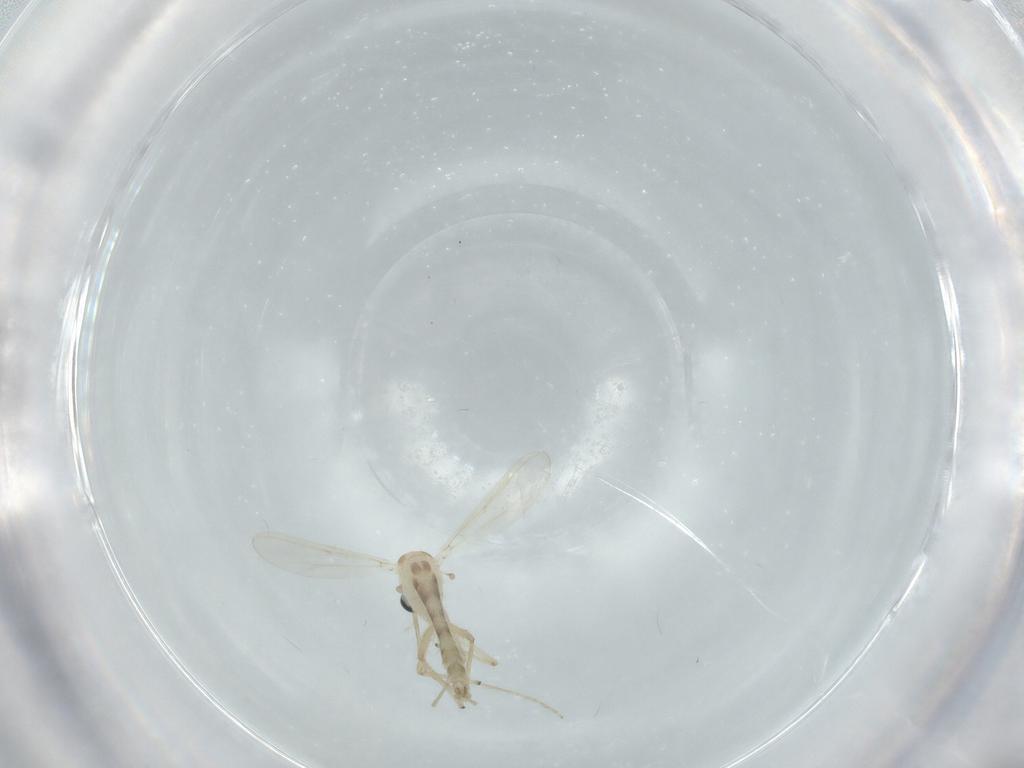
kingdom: Animalia
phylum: Arthropoda
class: Insecta
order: Diptera
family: Chironomidae
